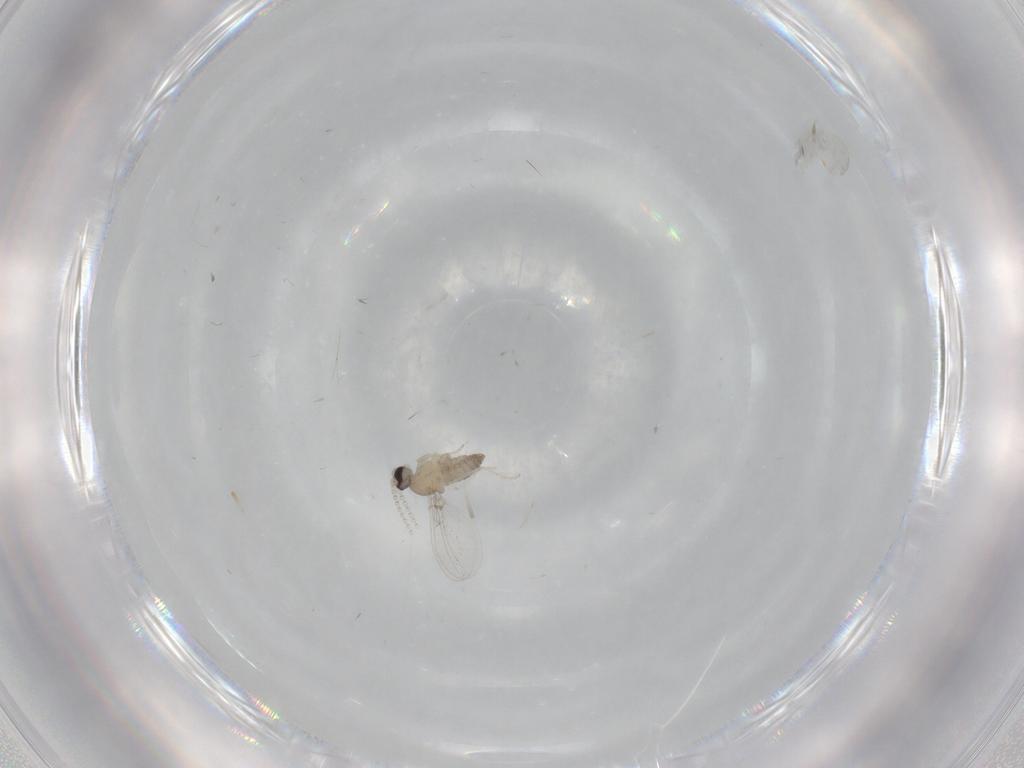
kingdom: Animalia
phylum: Arthropoda
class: Insecta
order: Diptera
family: Cecidomyiidae
